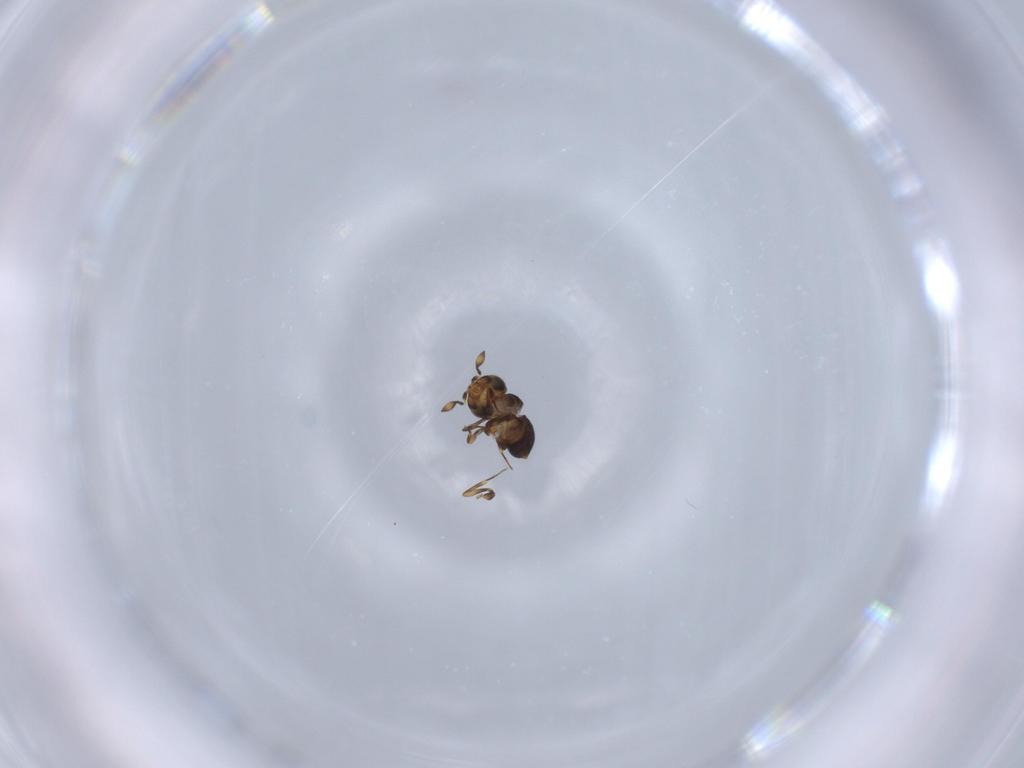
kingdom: Animalia
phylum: Arthropoda
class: Insecta
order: Hymenoptera
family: Scelionidae
